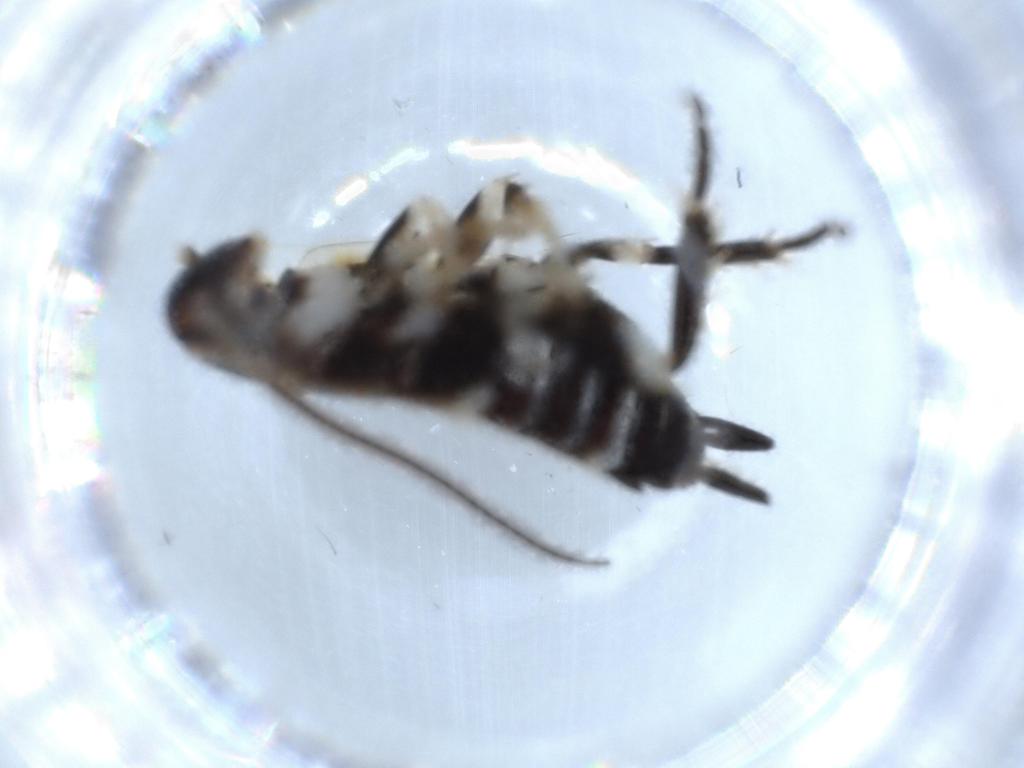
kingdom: Animalia
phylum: Arthropoda
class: Insecta
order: Blattodea
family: Ectobiidae
